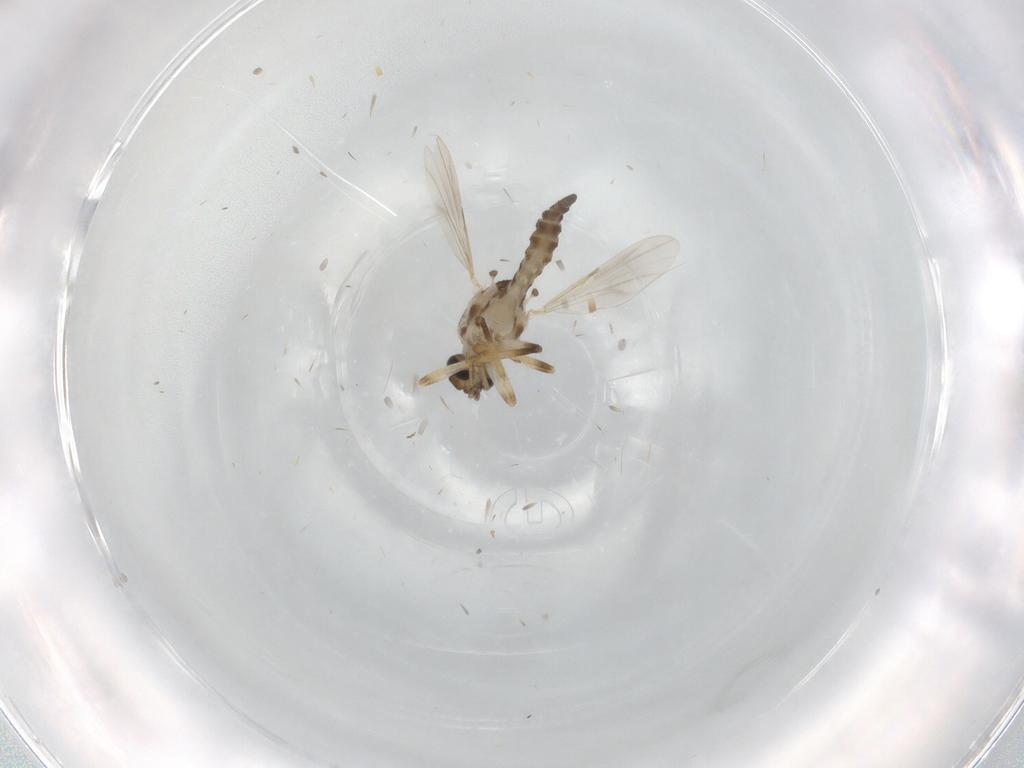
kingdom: Animalia
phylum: Arthropoda
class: Insecta
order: Diptera
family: Ceratopogonidae
